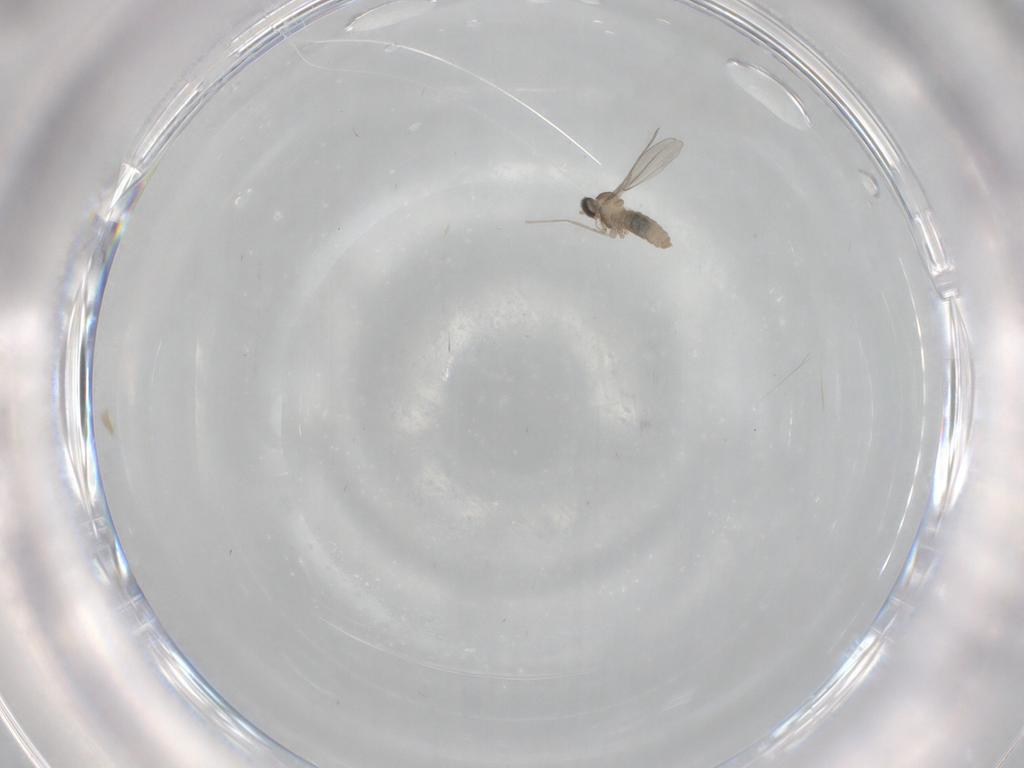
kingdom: Animalia
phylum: Arthropoda
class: Insecta
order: Diptera
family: Cecidomyiidae
